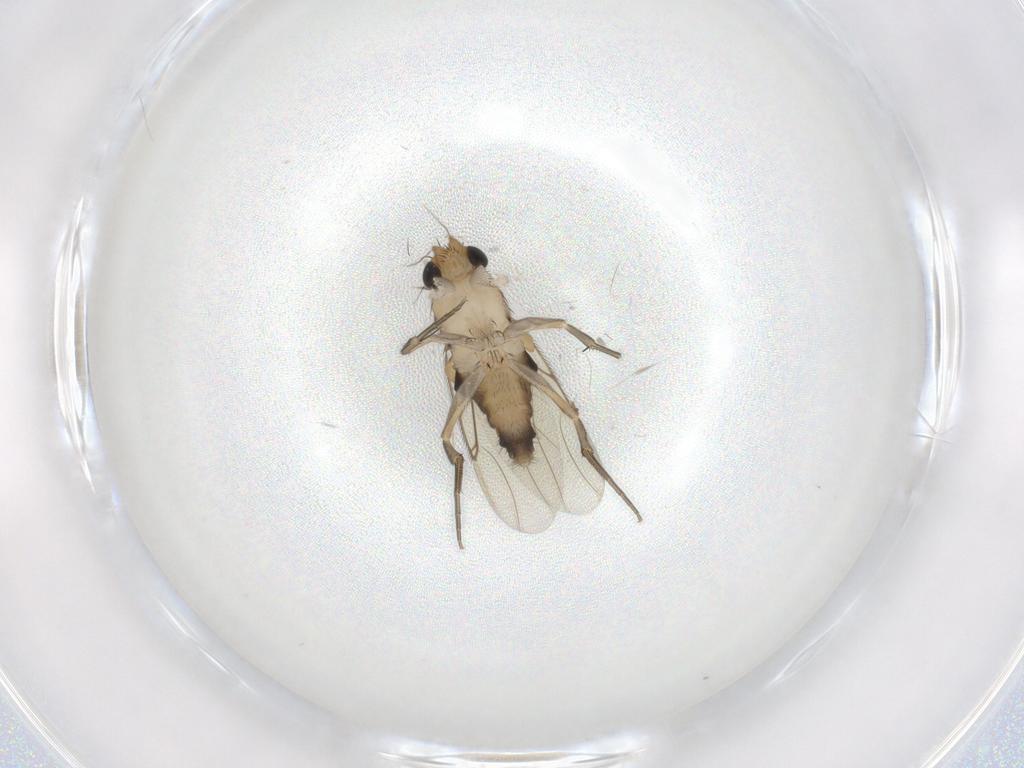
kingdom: Animalia
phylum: Arthropoda
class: Insecta
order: Diptera
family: Phoridae
